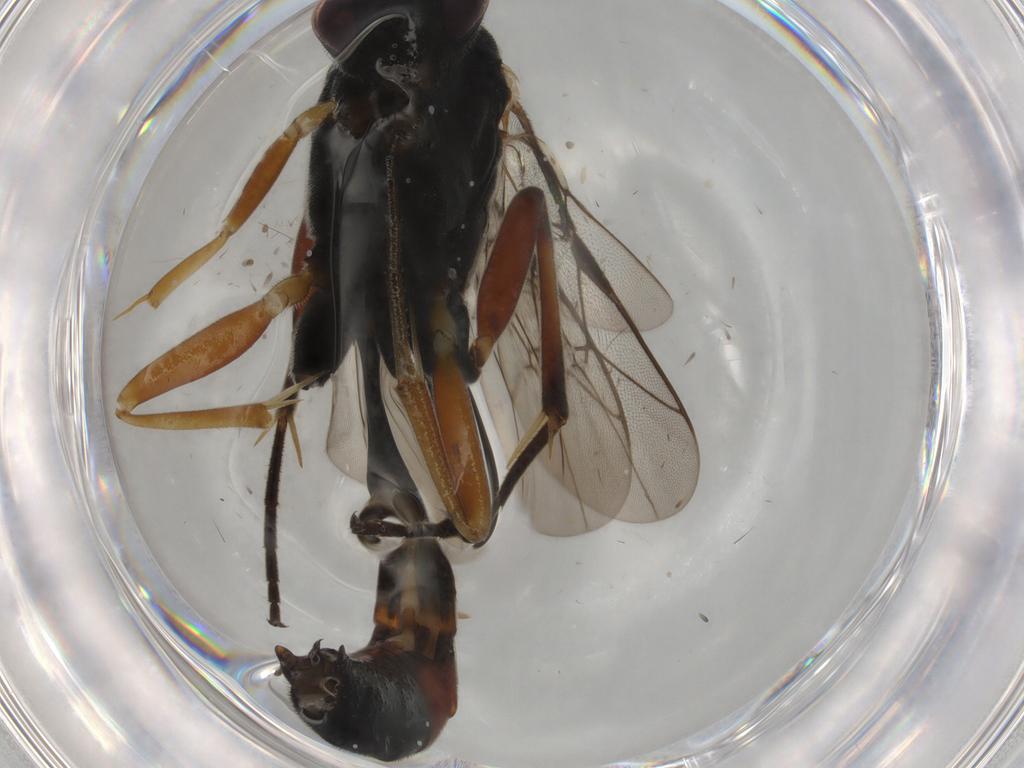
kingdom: Animalia
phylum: Arthropoda
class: Insecta
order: Hymenoptera
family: Ichneumonidae
